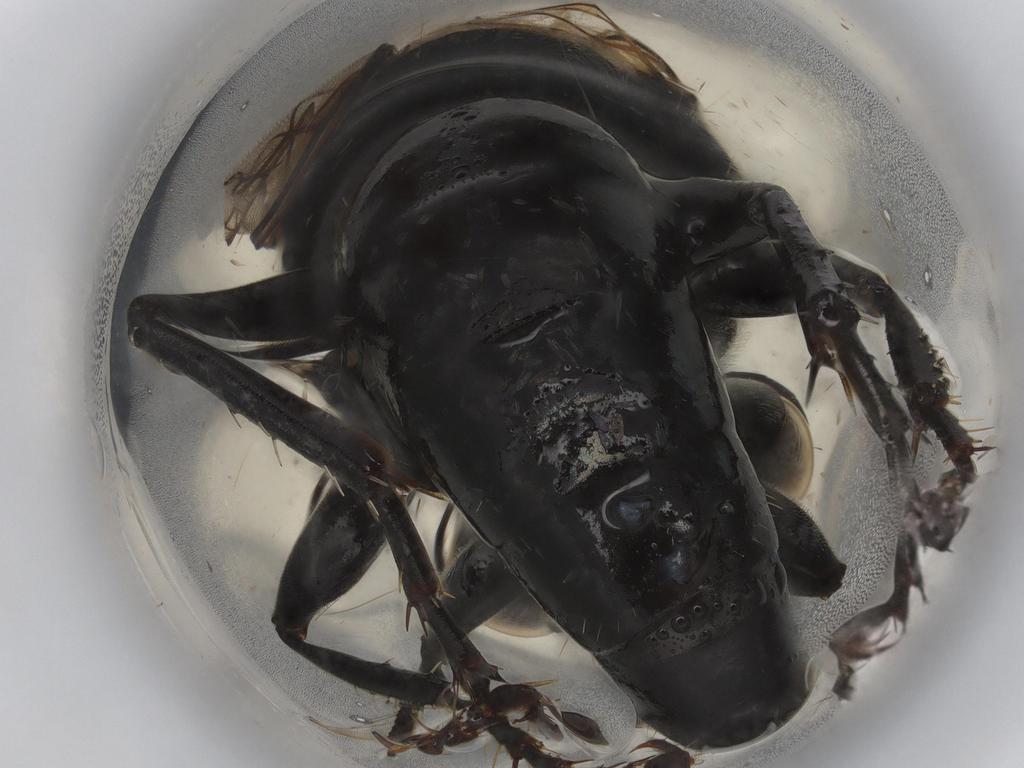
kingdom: Animalia
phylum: Arthropoda
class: Insecta
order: Hymenoptera
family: Crabronidae
